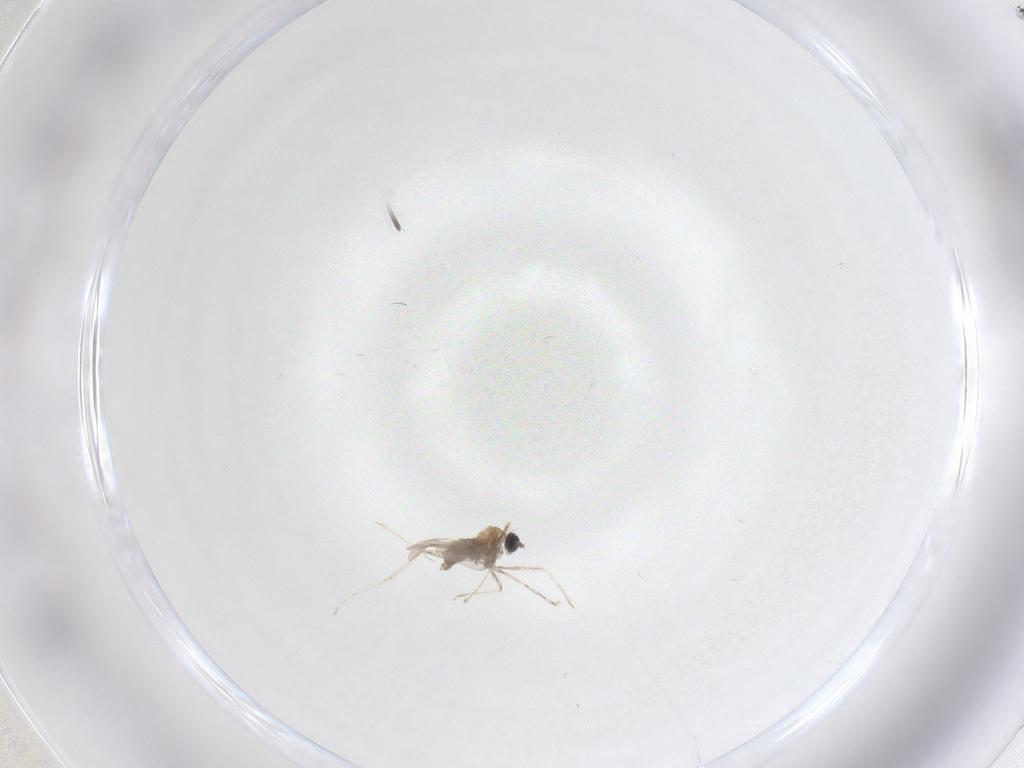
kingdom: Animalia
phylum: Arthropoda
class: Insecta
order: Diptera
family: Cecidomyiidae
